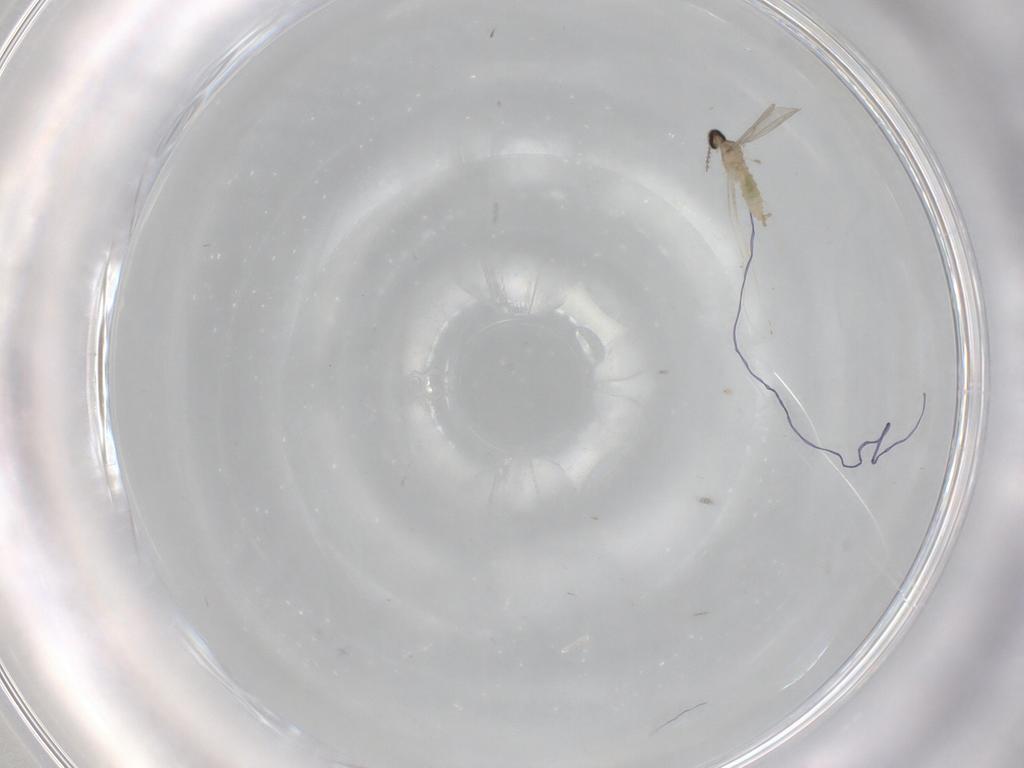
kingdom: Animalia
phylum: Arthropoda
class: Insecta
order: Diptera
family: Cecidomyiidae
